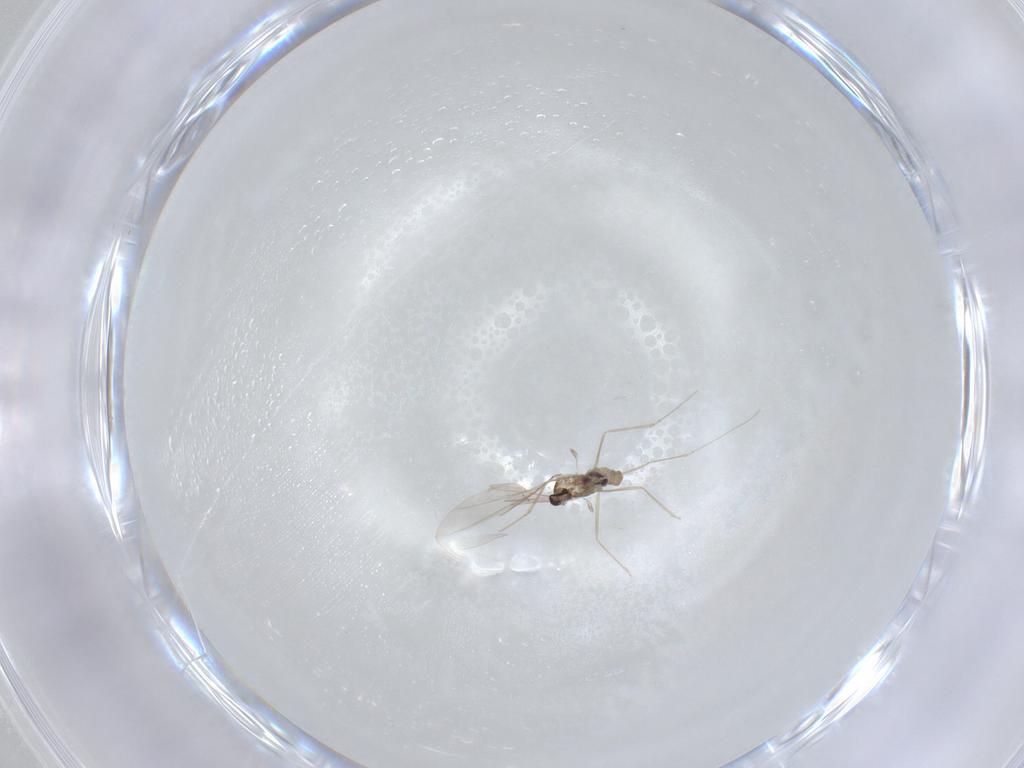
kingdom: Animalia
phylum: Arthropoda
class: Insecta
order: Diptera
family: Cecidomyiidae
